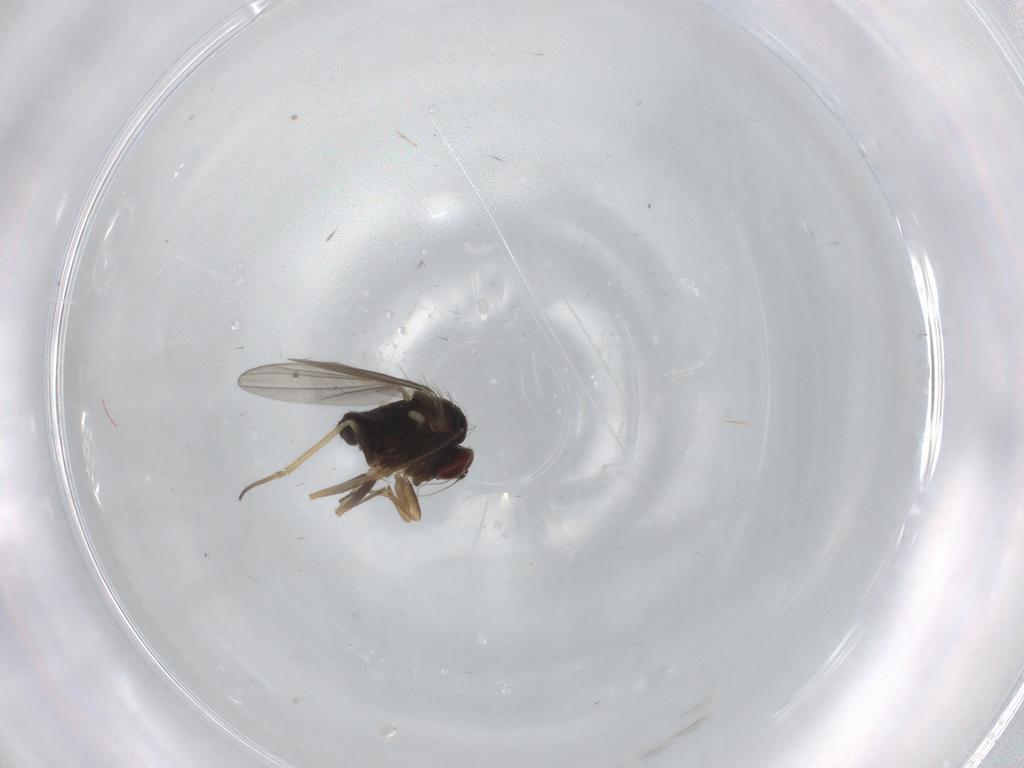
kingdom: Animalia
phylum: Arthropoda
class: Insecta
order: Diptera
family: Dolichopodidae
